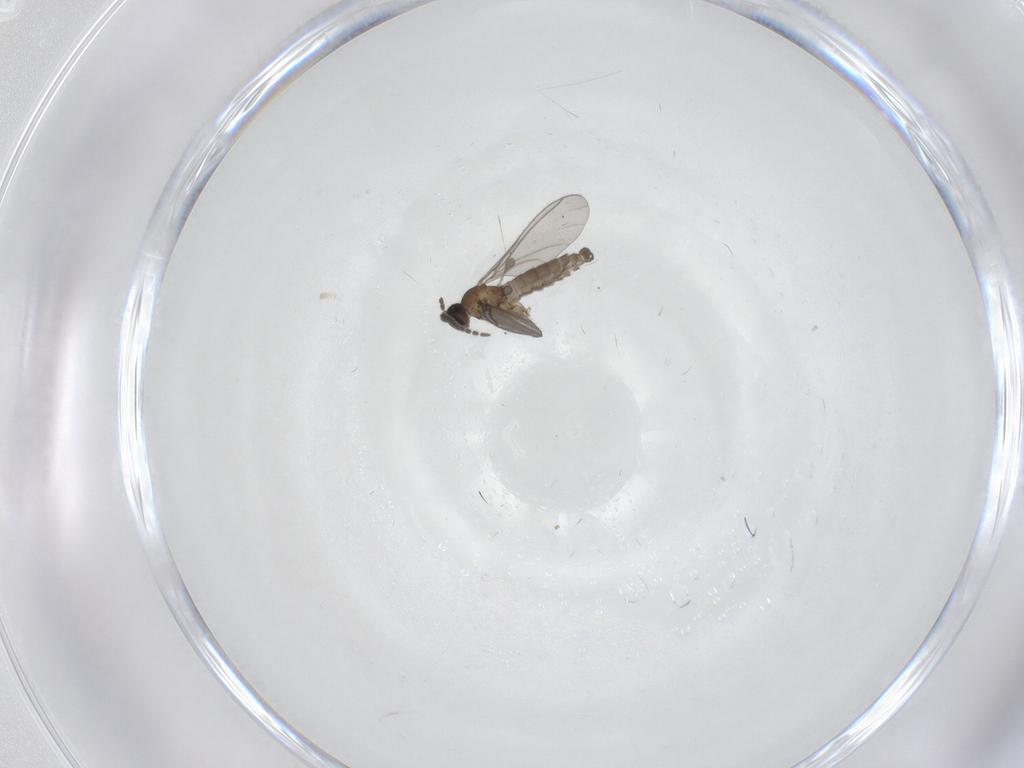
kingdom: Animalia
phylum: Arthropoda
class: Insecta
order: Diptera
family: Sciaridae
